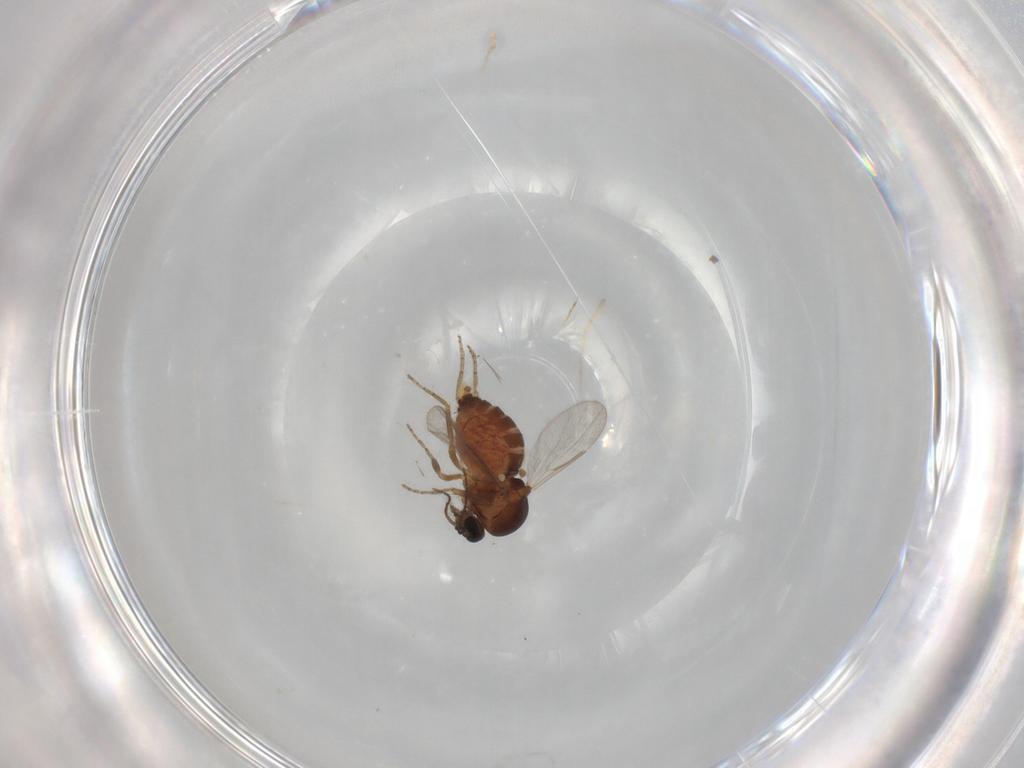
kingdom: Animalia
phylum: Arthropoda
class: Insecta
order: Diptera
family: Ceratopogonidae
